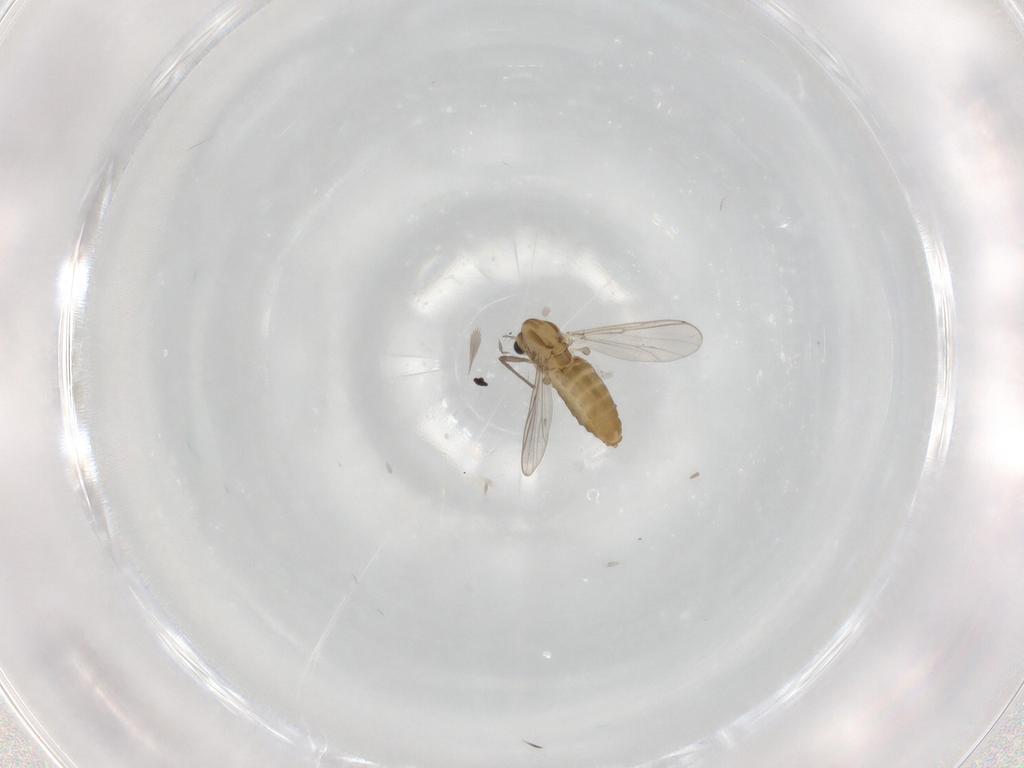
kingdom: Animalia
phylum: Arthropoda
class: Insecta
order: Diptera
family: Chironomidae
